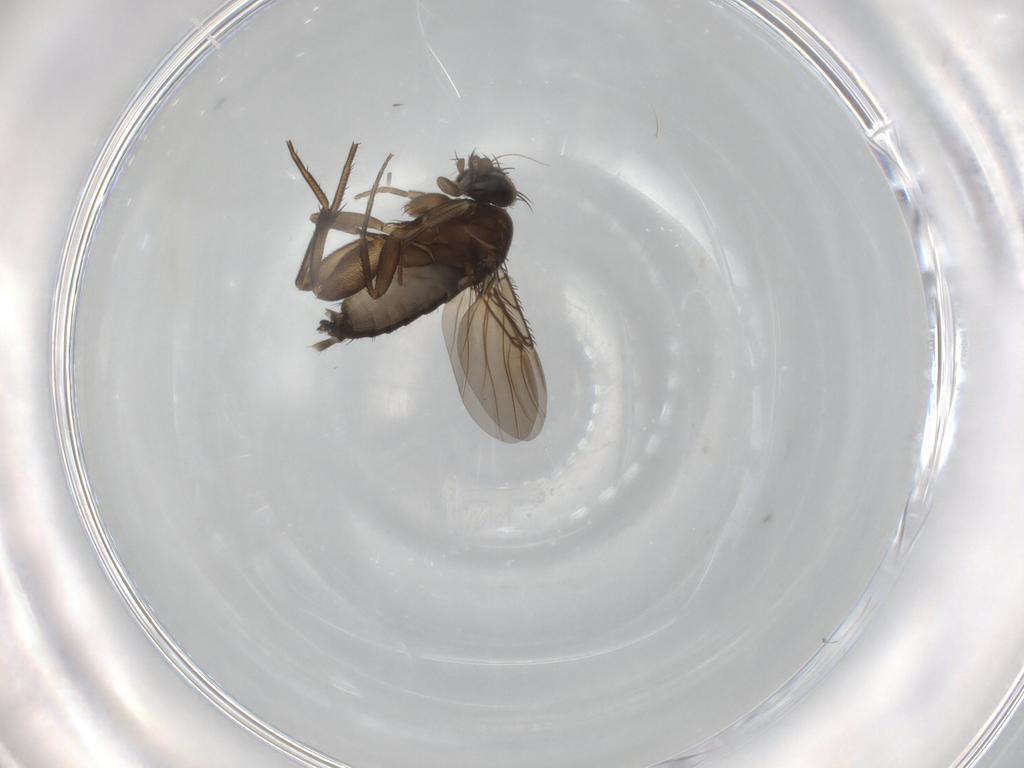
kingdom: Animalia
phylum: Arthropoda
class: Insecta
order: Diptera
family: Phoridae
